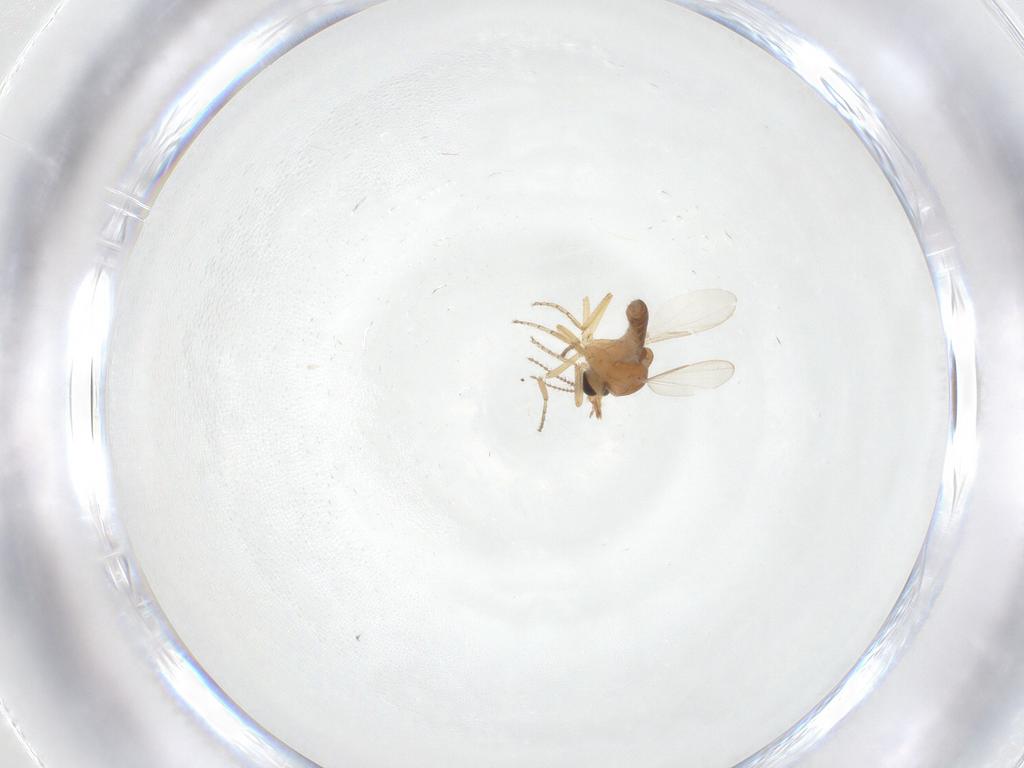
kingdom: Animalia
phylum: Arthropoda
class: Insecta
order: Diptera
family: Ceratopogonidae
